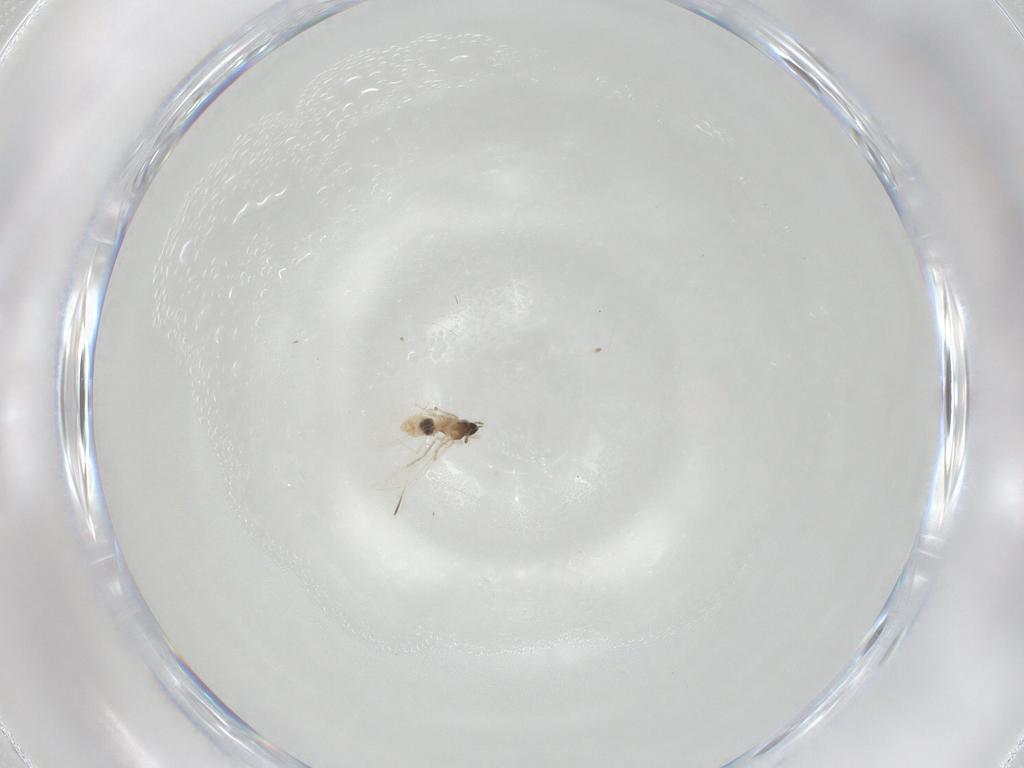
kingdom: Animalia
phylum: Arthropoda
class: Insecta
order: Diptera
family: Cecidomyiidae
